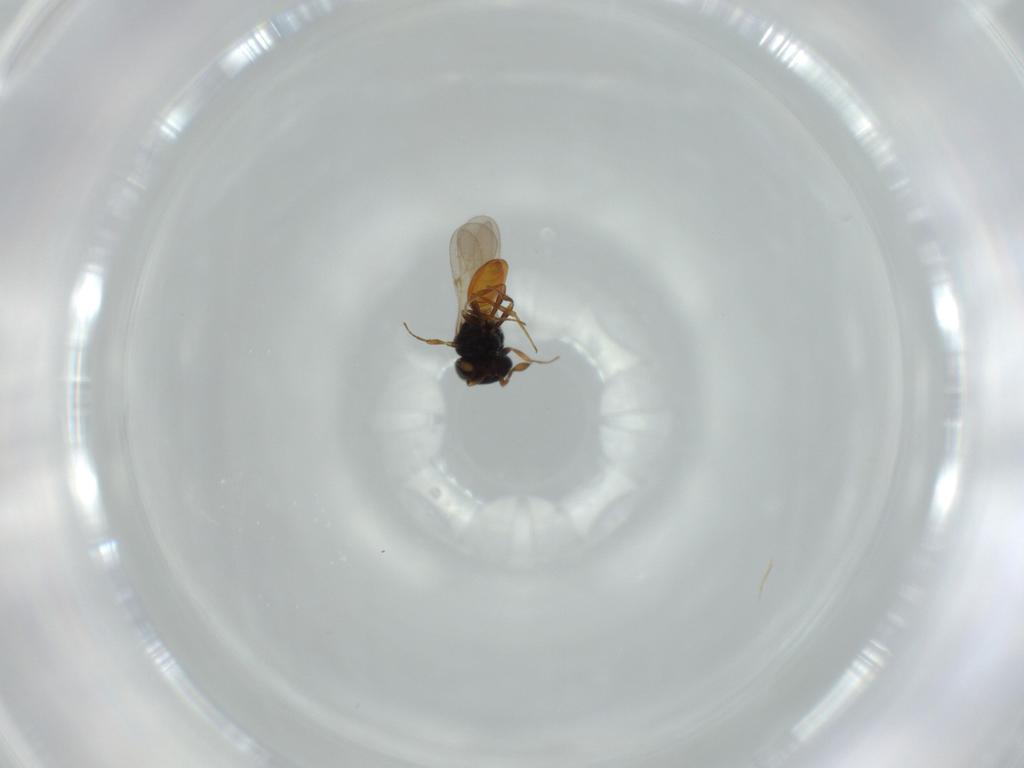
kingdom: Animalia
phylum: Arthropoda
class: Insecta
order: Hymenoptera
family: Scelionidae
